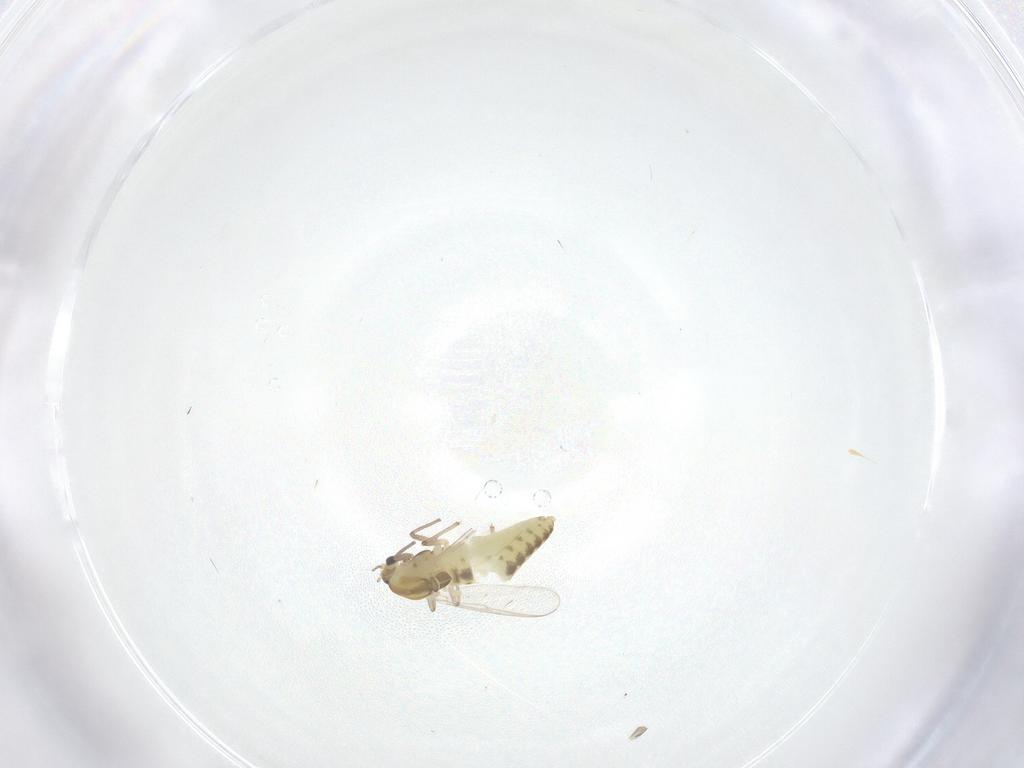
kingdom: Animalia
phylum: Arthropoda
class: Insecta
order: Diptera
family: Chironomidae
